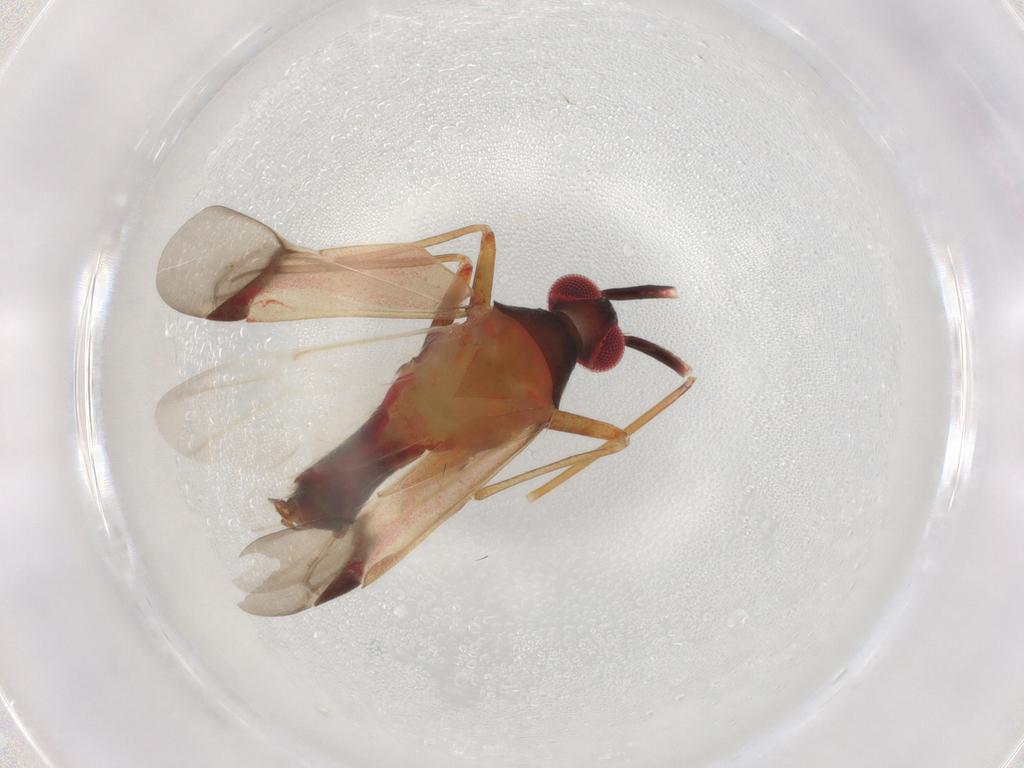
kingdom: Animalia
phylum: Arthropoda
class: Insecta
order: Hemiptera
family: Miridae
